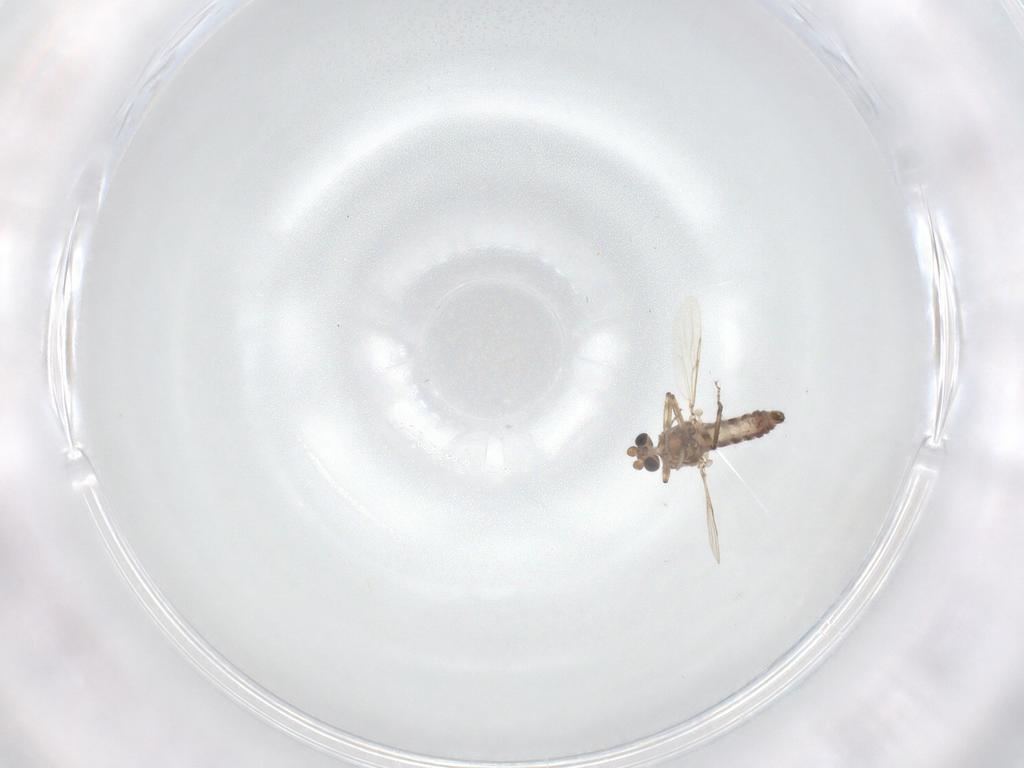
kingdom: Animalia
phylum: Arthropoda
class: Insecta
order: Diptera
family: Ceratopogonidae
